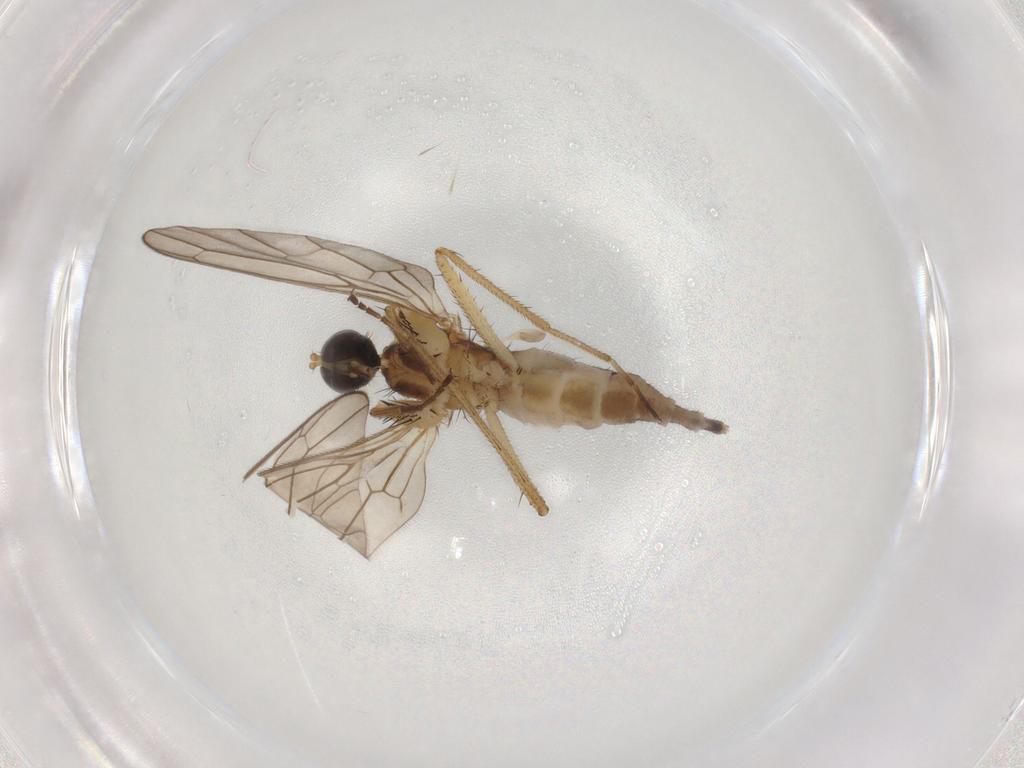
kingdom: Animalia
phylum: Arthropoda
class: Insecta
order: Diptera
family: Empididae
